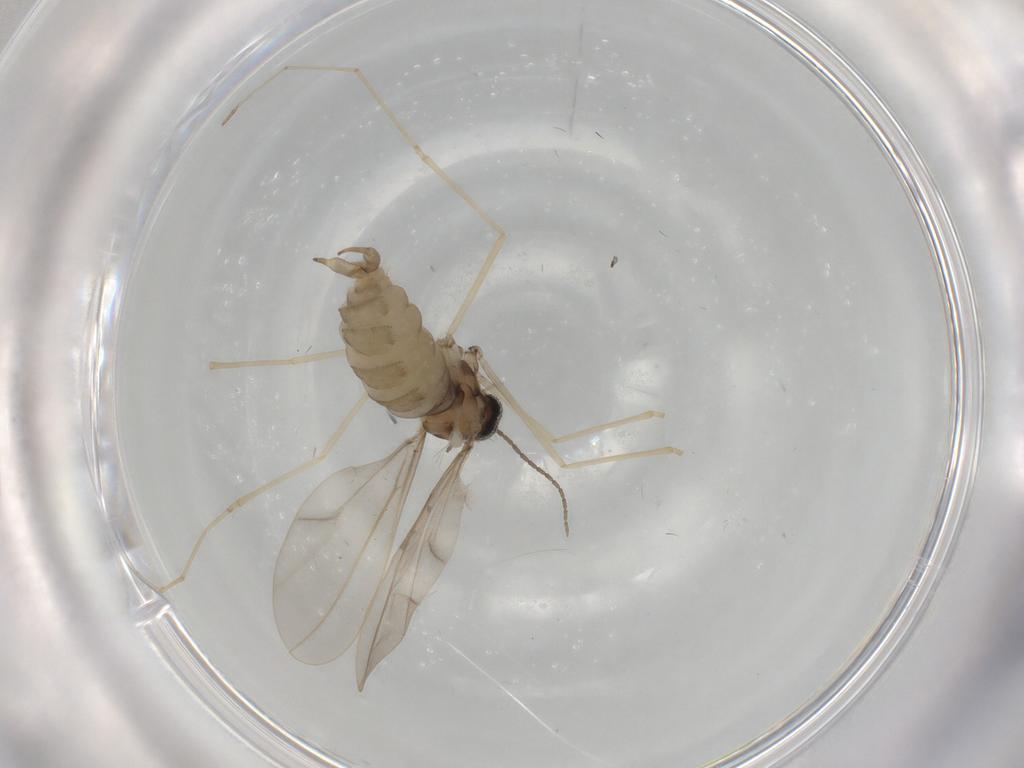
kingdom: Animalia
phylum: Arthropoda
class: Insecta
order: Diptera
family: Cecidomyiidae
